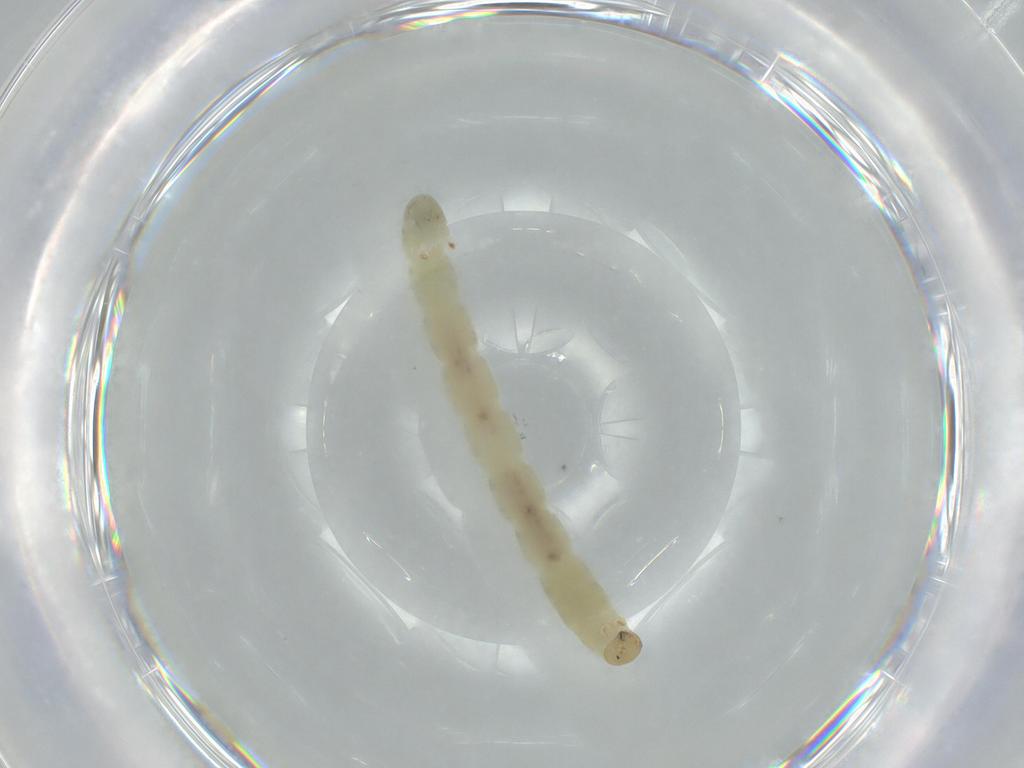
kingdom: Animalia
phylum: Arthropoda
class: Insecta
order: Diptera
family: Chironomidae
